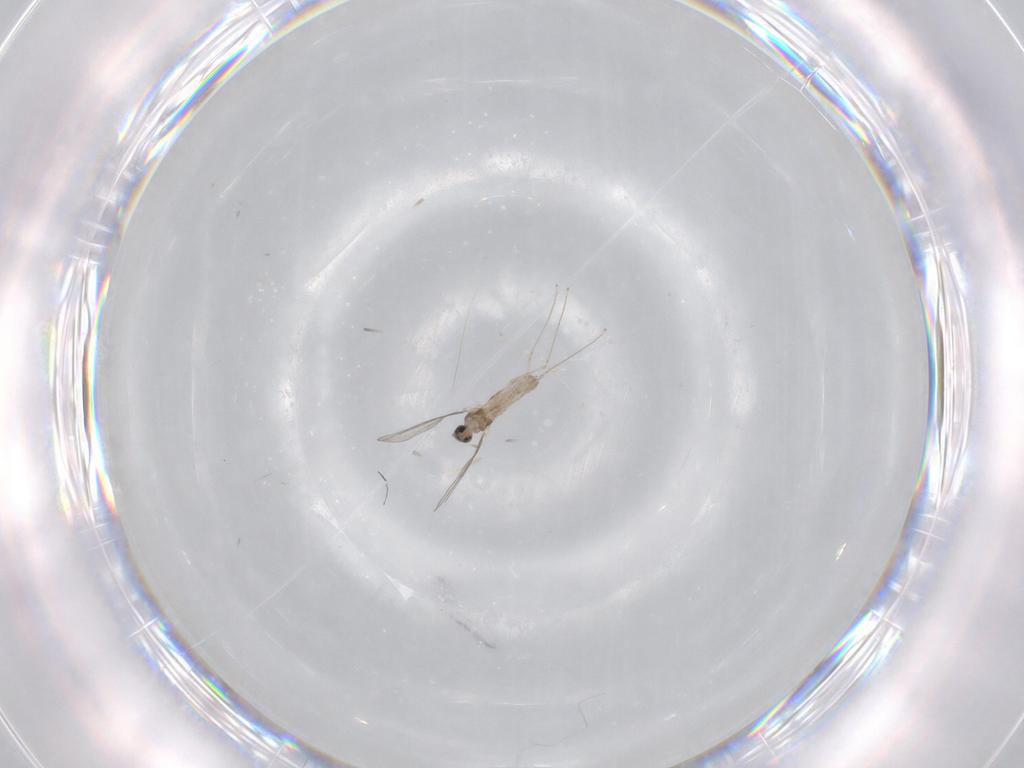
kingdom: Animalia
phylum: Arthropoda
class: Insecta
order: Diptera
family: Cecidomyiidae
